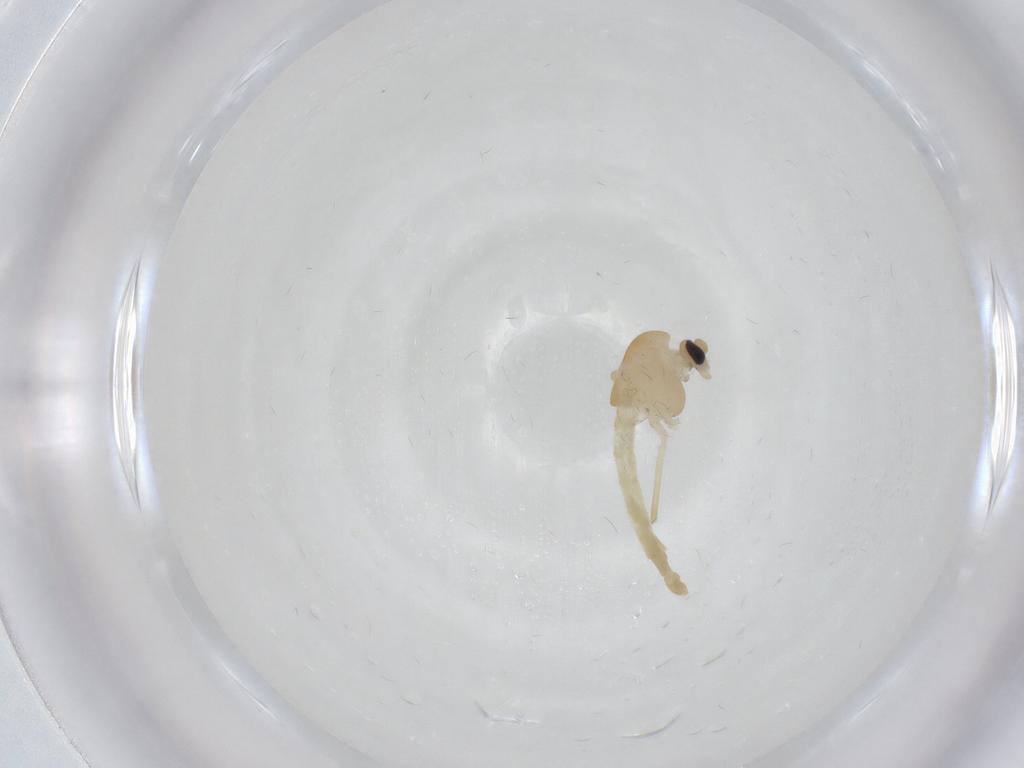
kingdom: Animalia
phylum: Arthropoda
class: Insecta
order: Diptera
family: Chironomidae
